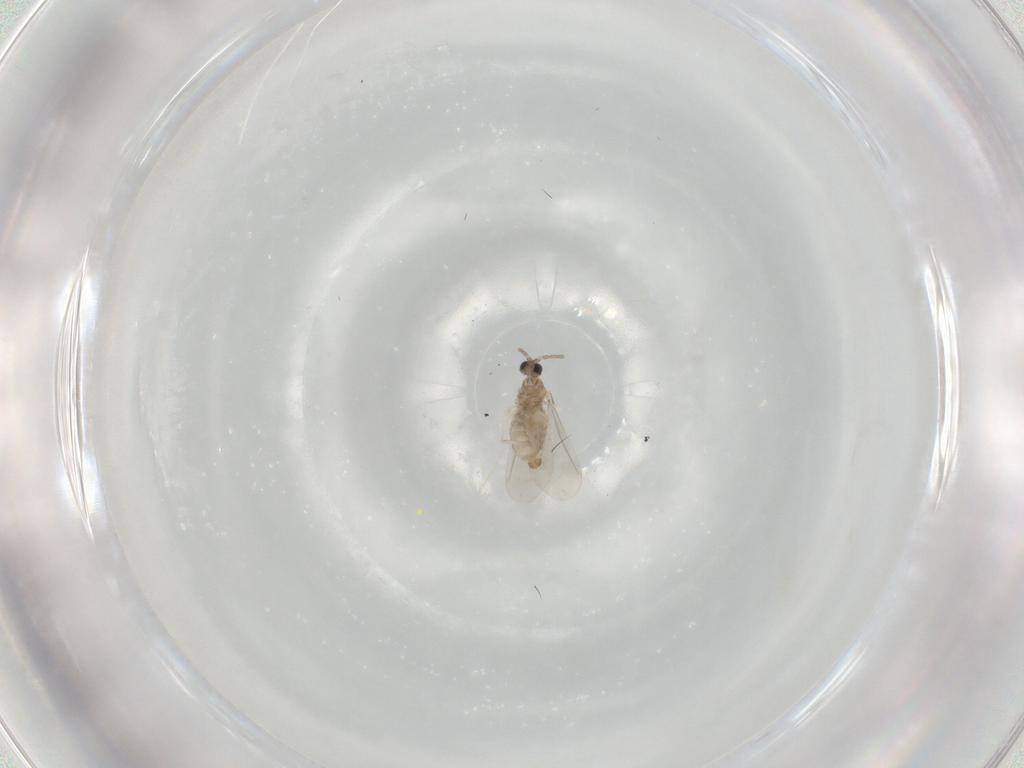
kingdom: Animalia
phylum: Arthropoda
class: Insecta
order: Diptera
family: Cecidomyiidae
